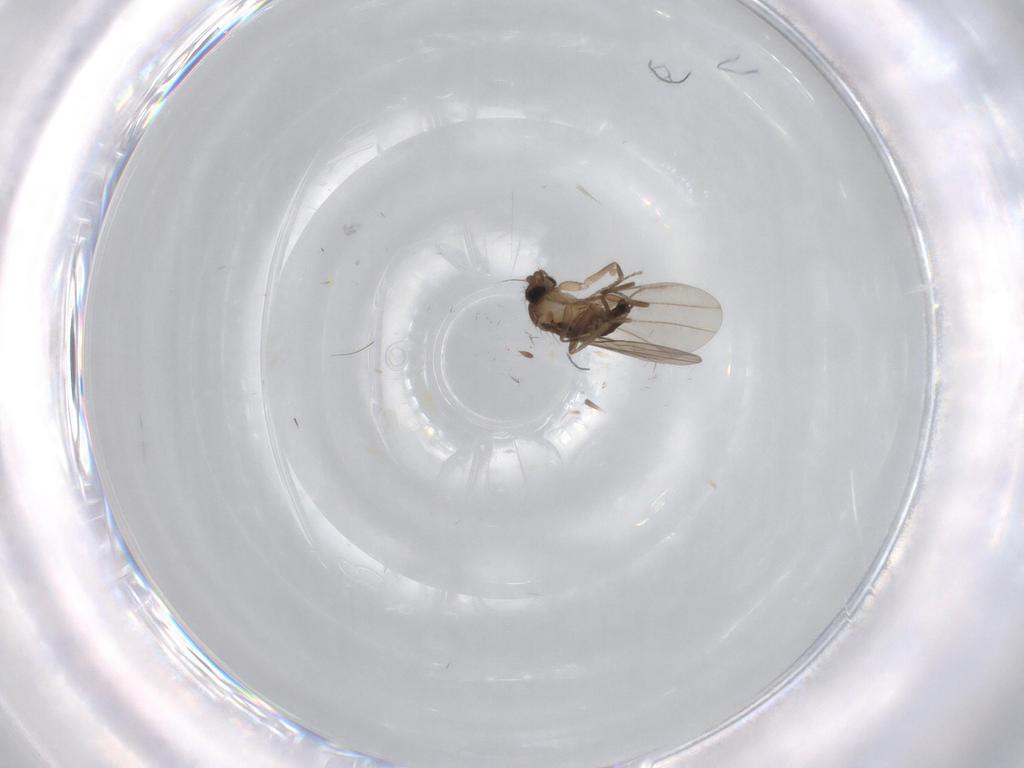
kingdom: Animalia
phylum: Arthropoda
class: Insecta
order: Diptera
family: Phoridae
